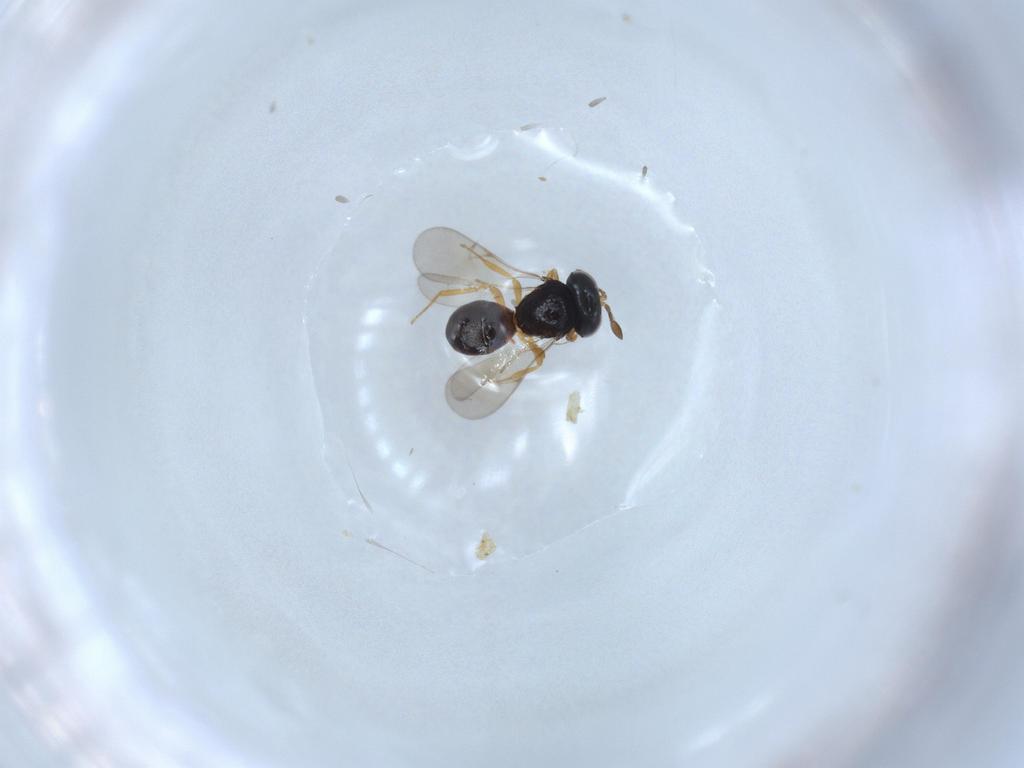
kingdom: Animalia
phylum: Arthropoda
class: Insecta
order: Hymenoptera
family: Scelionidae
